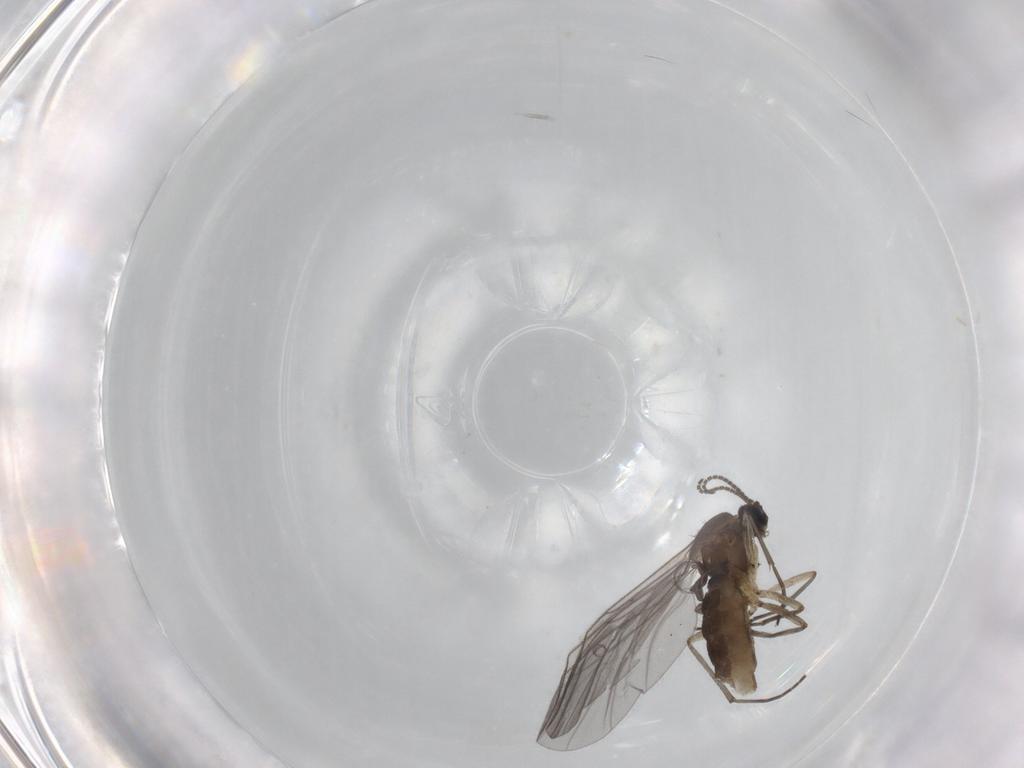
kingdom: Animalia
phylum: Arthropoda
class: Insecta
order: Diptera
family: Sciaridae
